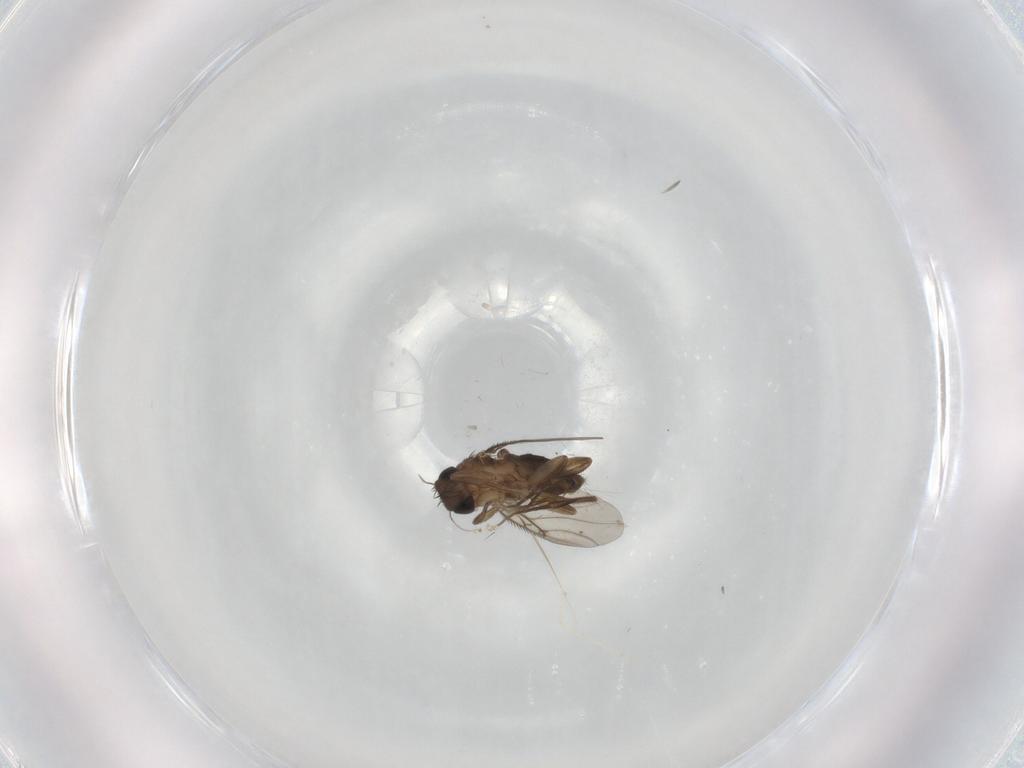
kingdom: Animalia
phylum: Arthropoda
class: Insecta
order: Diptera
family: Phoridae
